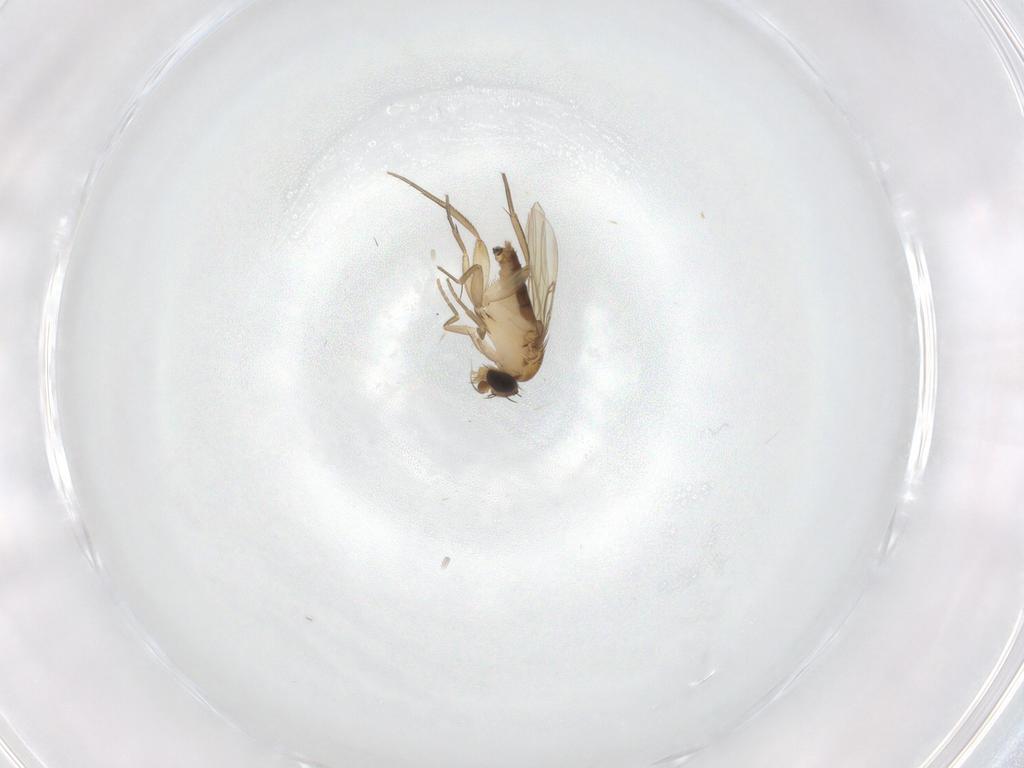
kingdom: Animalia
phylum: Arthropoda
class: Insecta
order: Diptera
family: Phoridae
